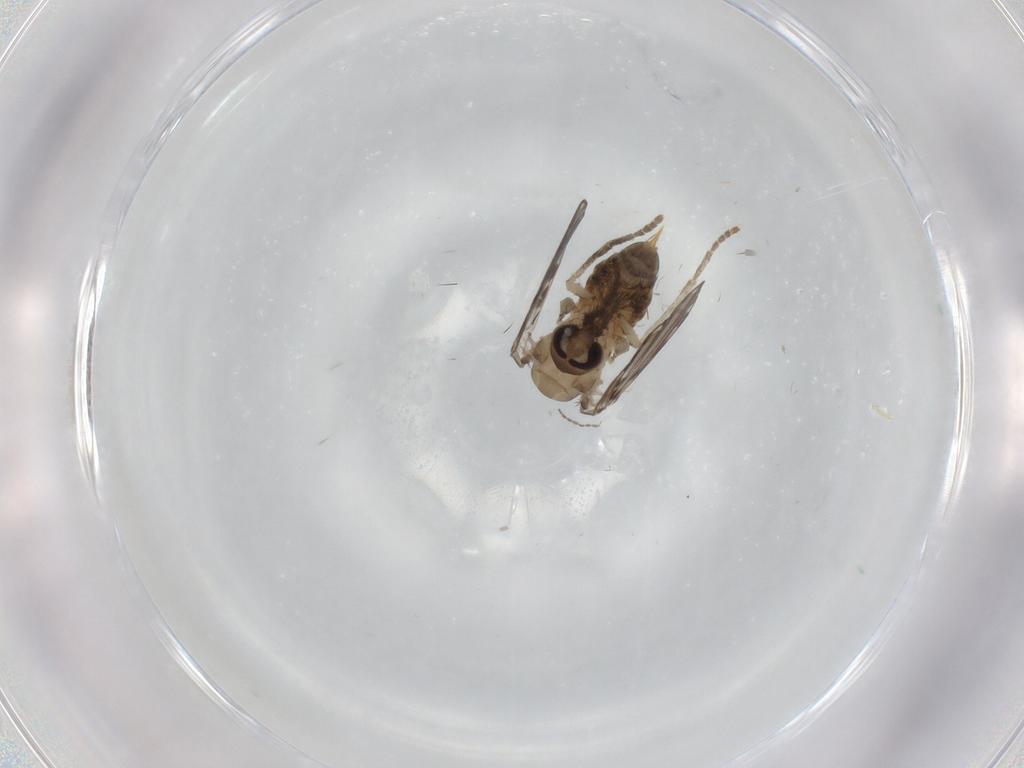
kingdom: Animalia
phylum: Arthropoda
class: Insecta
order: Diptera
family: Psychodidae
